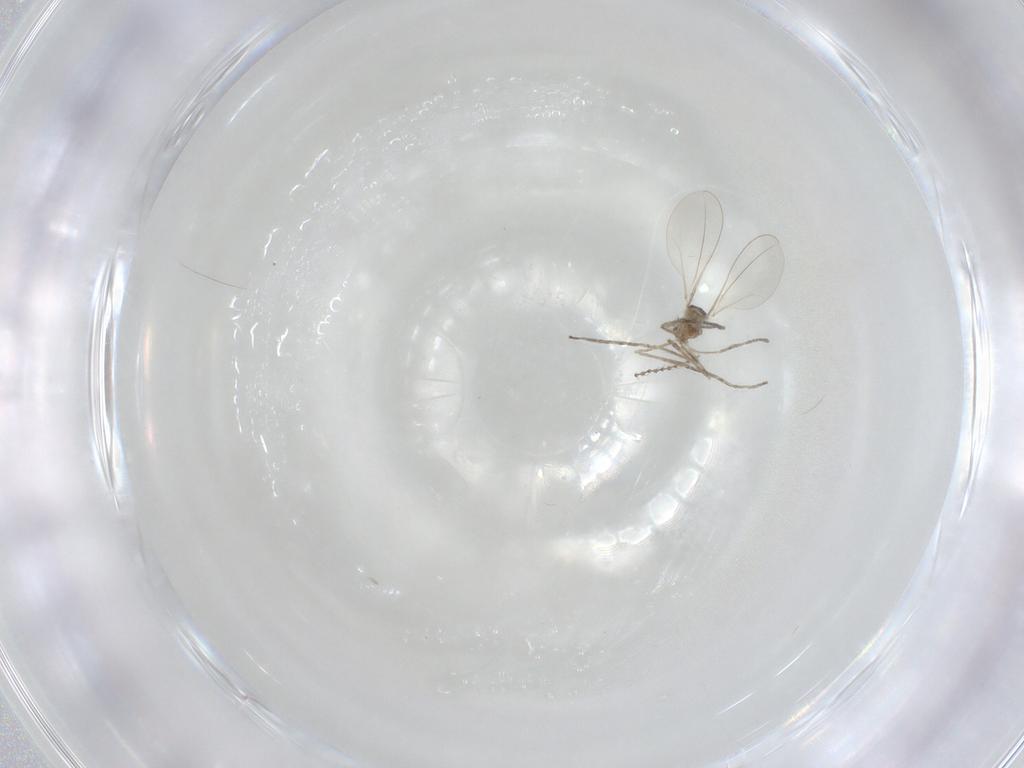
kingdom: Animalia
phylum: Arthropoda
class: Insecta
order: Diptera
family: Cecidomyiidae
